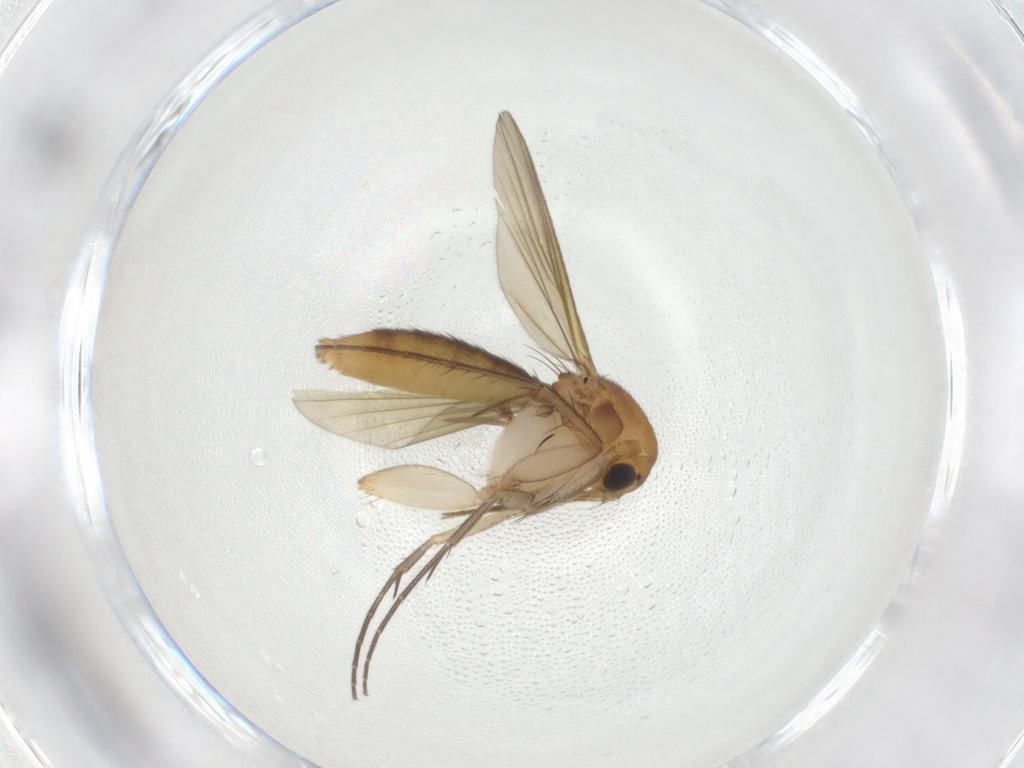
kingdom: Animalia
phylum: Arthropoda
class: Insecta
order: Diptera
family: Chironomidae
